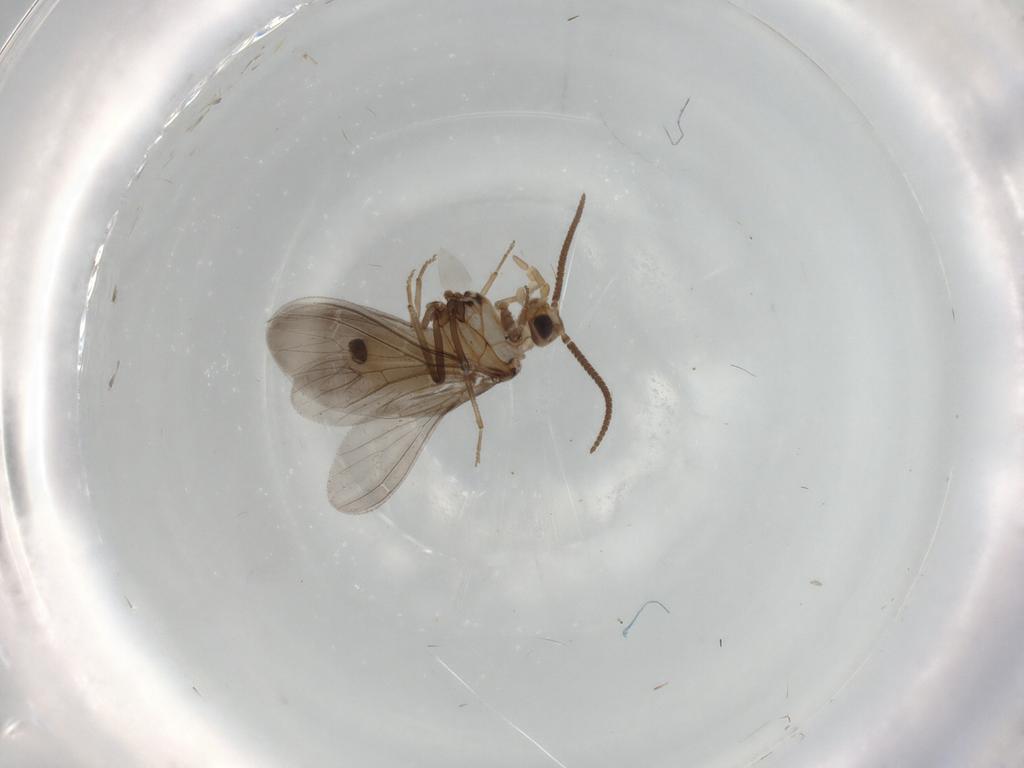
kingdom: Animalia
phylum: Arthropoda
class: Insecta
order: Neuroptera
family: Coniopterygidae
